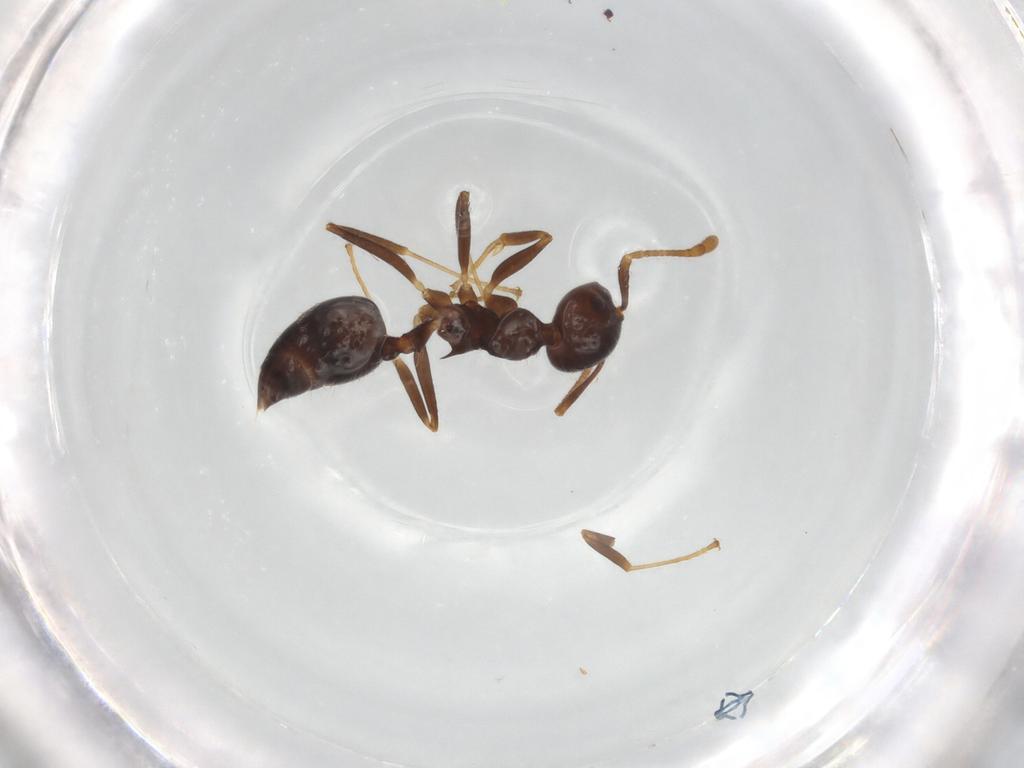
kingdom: Animalia
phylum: Arthropoda
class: Insecta
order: Hymenoptera
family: Formicidae
